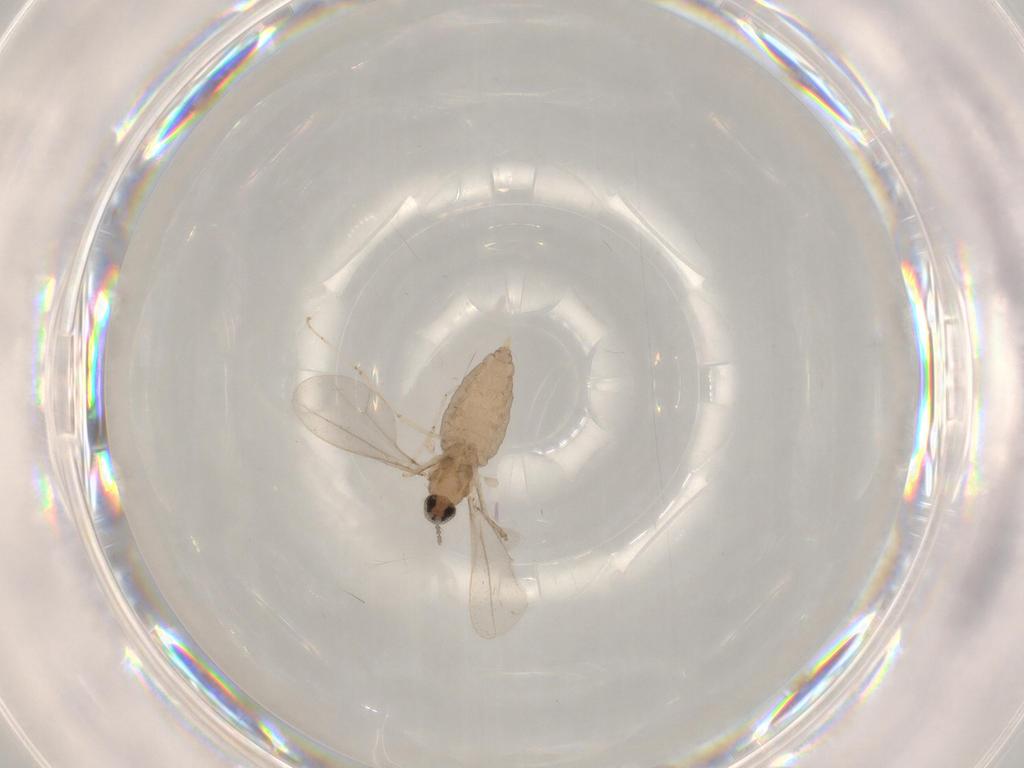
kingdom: Animalia
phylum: Arthropoda
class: Insecta
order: Diptera
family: Cecidomyiidae
